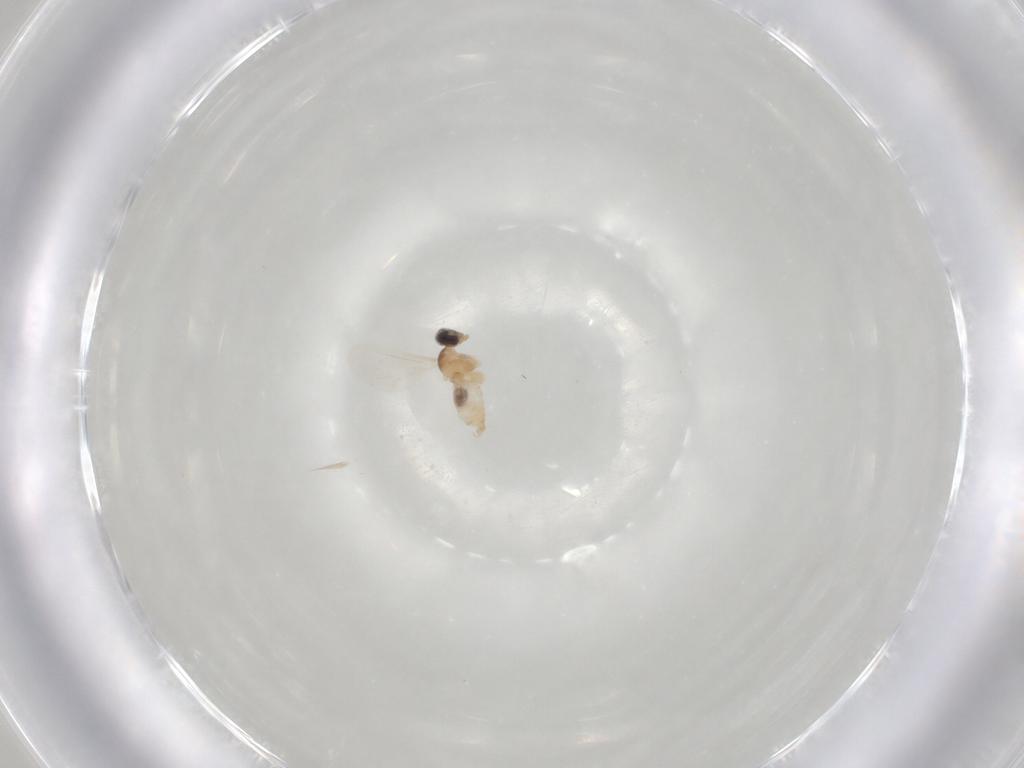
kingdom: Animalia
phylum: Arthropoda
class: Insecta
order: Diptera
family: Cecidomyiidae
